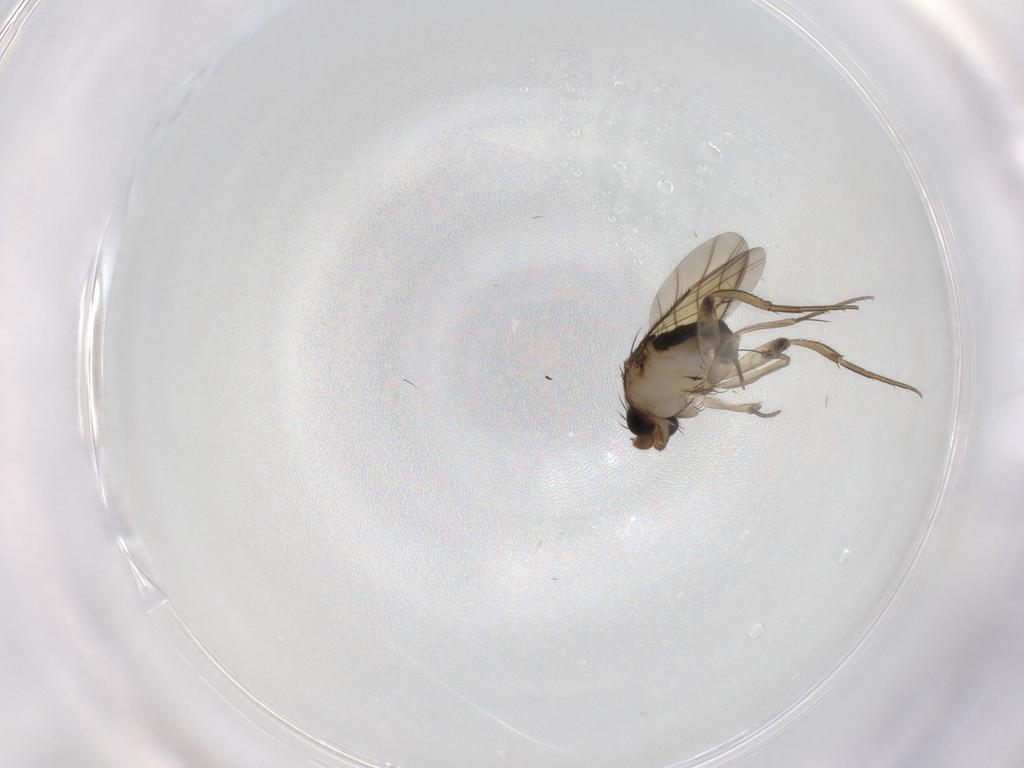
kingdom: Animalia
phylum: Arthropoda
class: Insecta
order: Diptera
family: Phoridae
